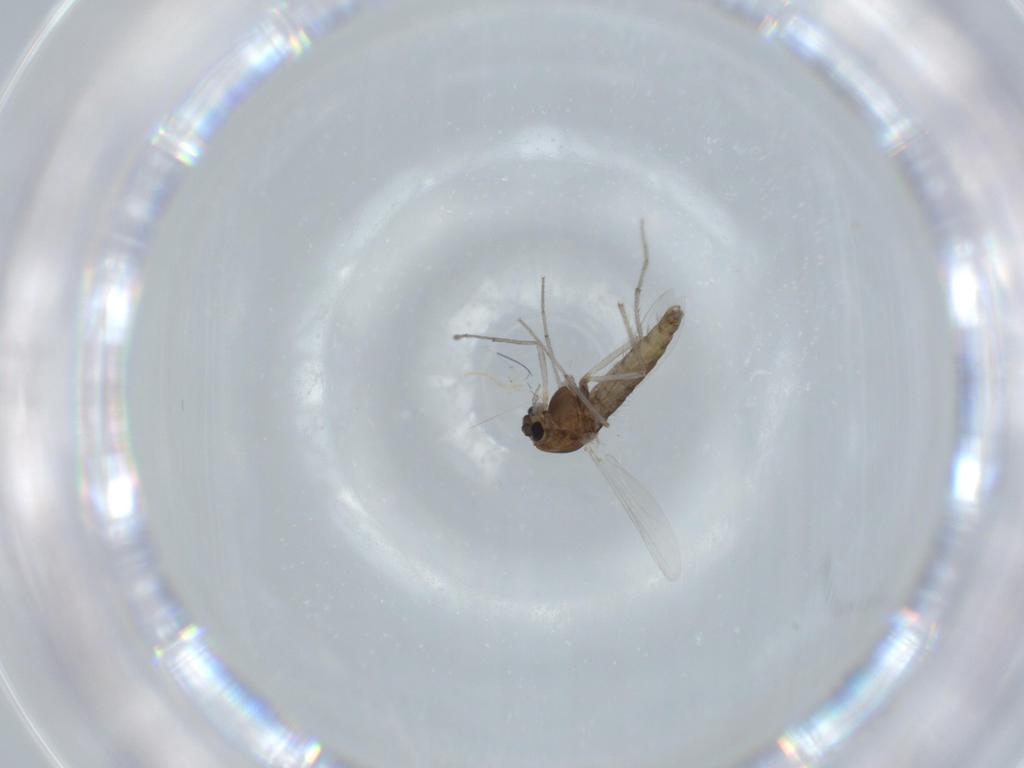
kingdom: Animalia
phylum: Arthropoda
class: Insecta
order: Diptera
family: Chironomidae
